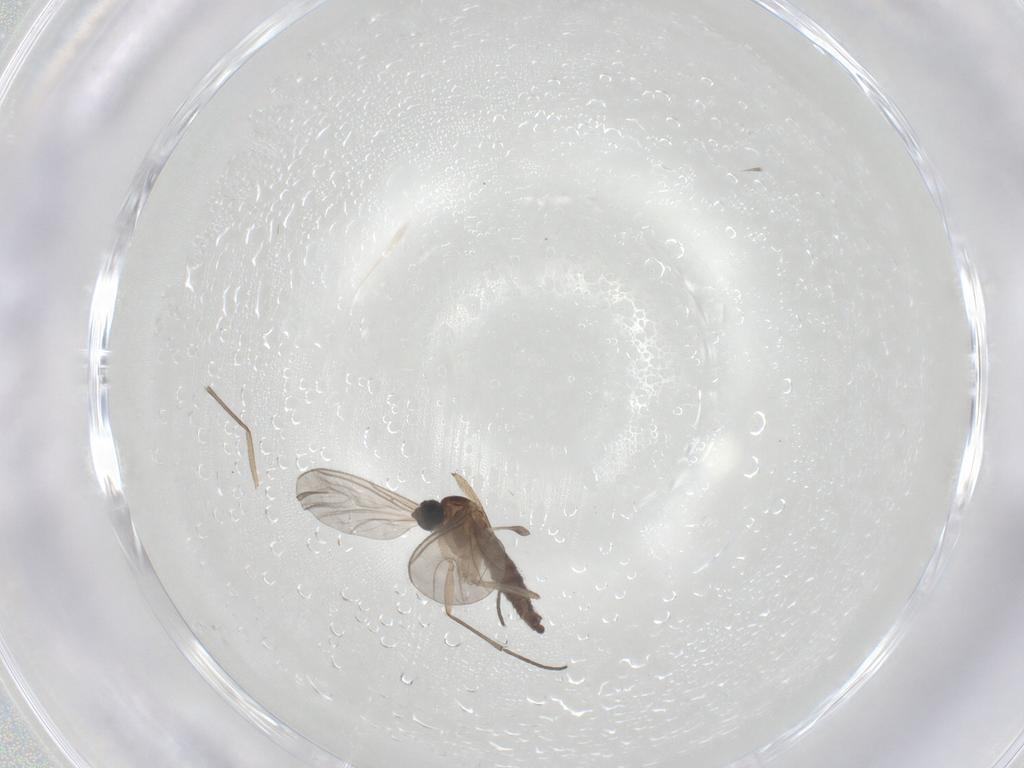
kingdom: Animalia
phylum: Arthropoda
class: Insecta
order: Diptera
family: Sciaridae
